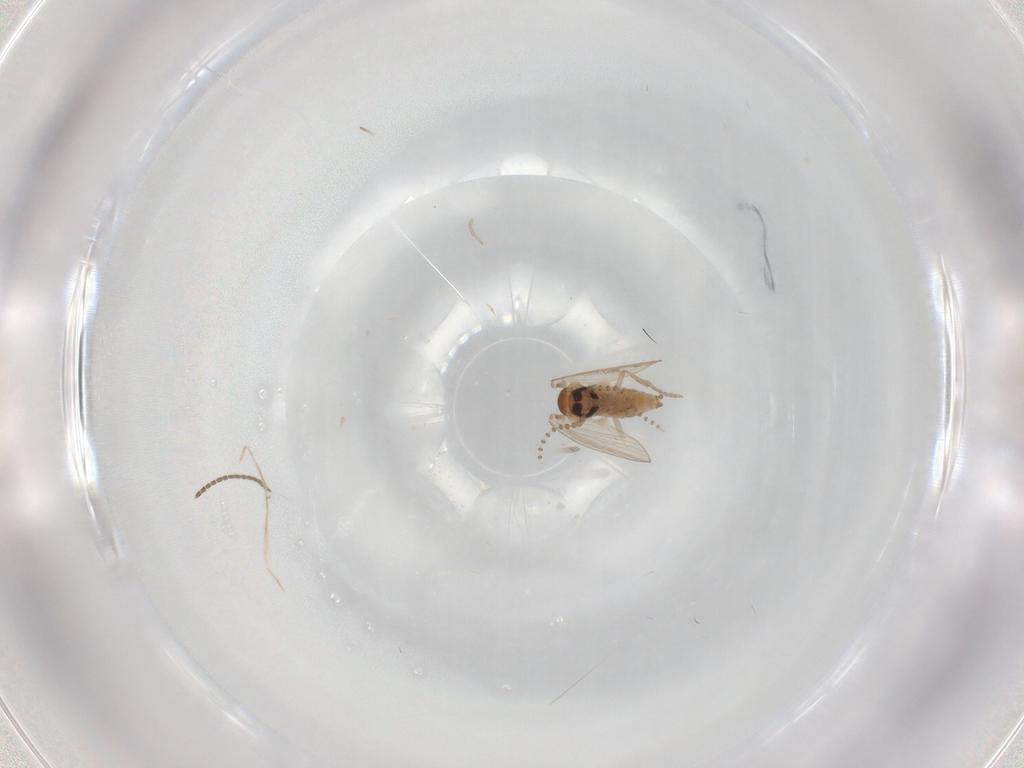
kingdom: Animalia
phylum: Arthropoda
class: Insecta
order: Diptera
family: Psychodidae
